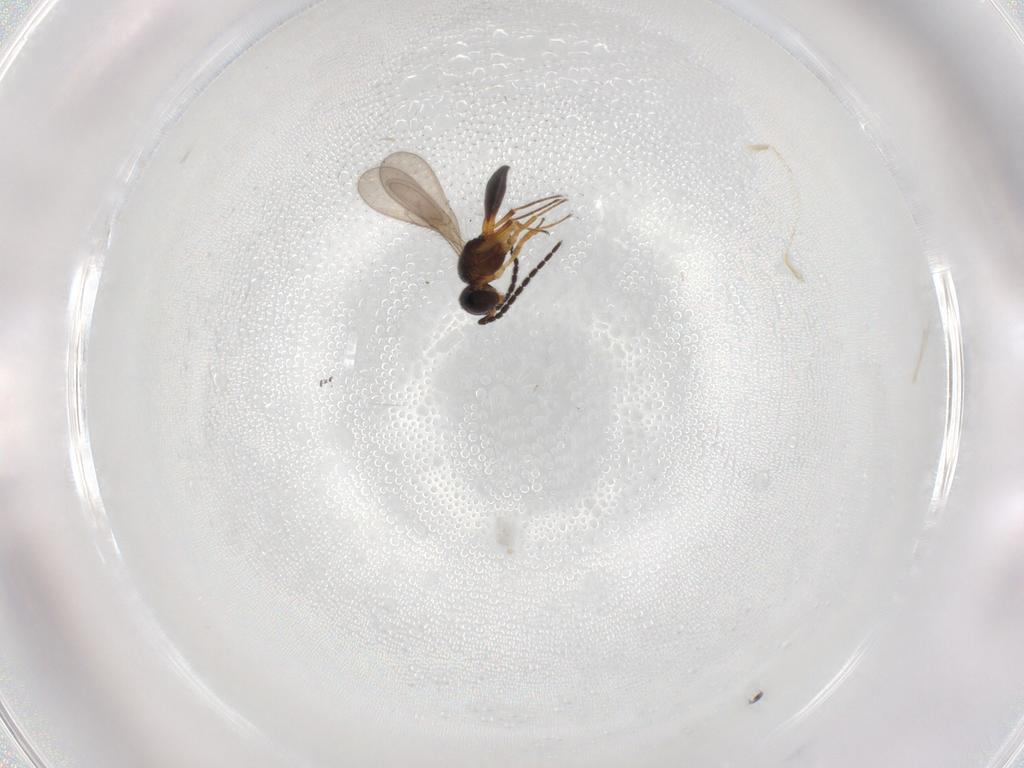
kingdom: Animalia
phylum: Arthropoda
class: Insecta
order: Hymenoptera
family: Scelionidae
